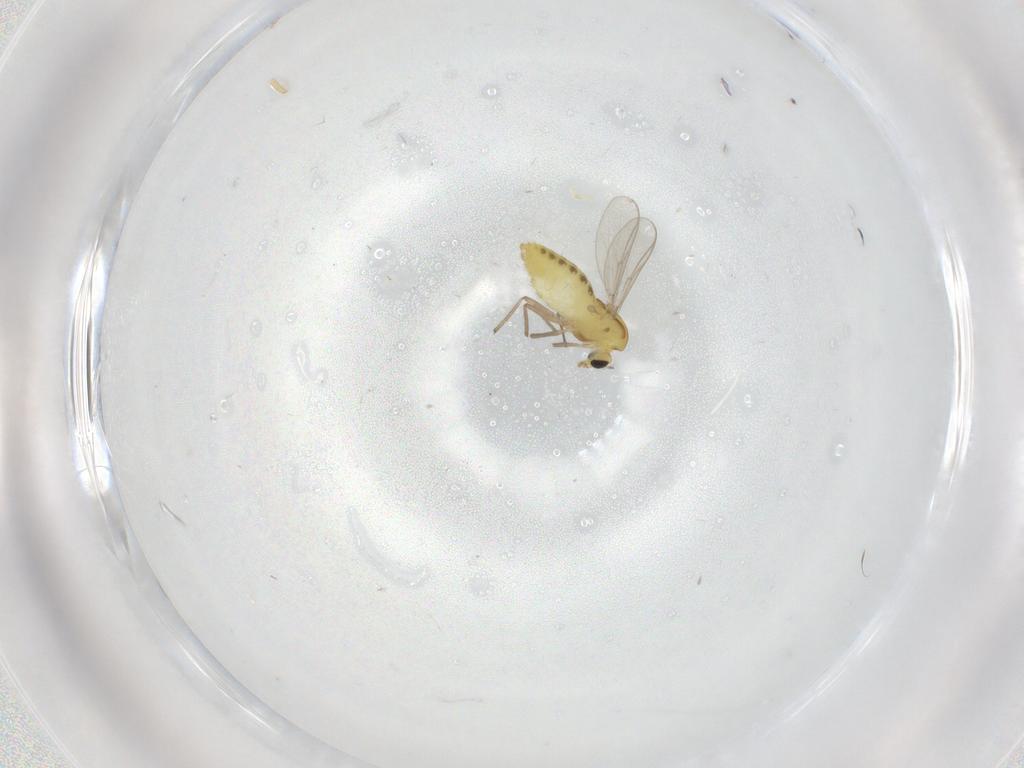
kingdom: Animalia
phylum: Arthropoda
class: Insecta
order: Diptera
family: Chironomidae
